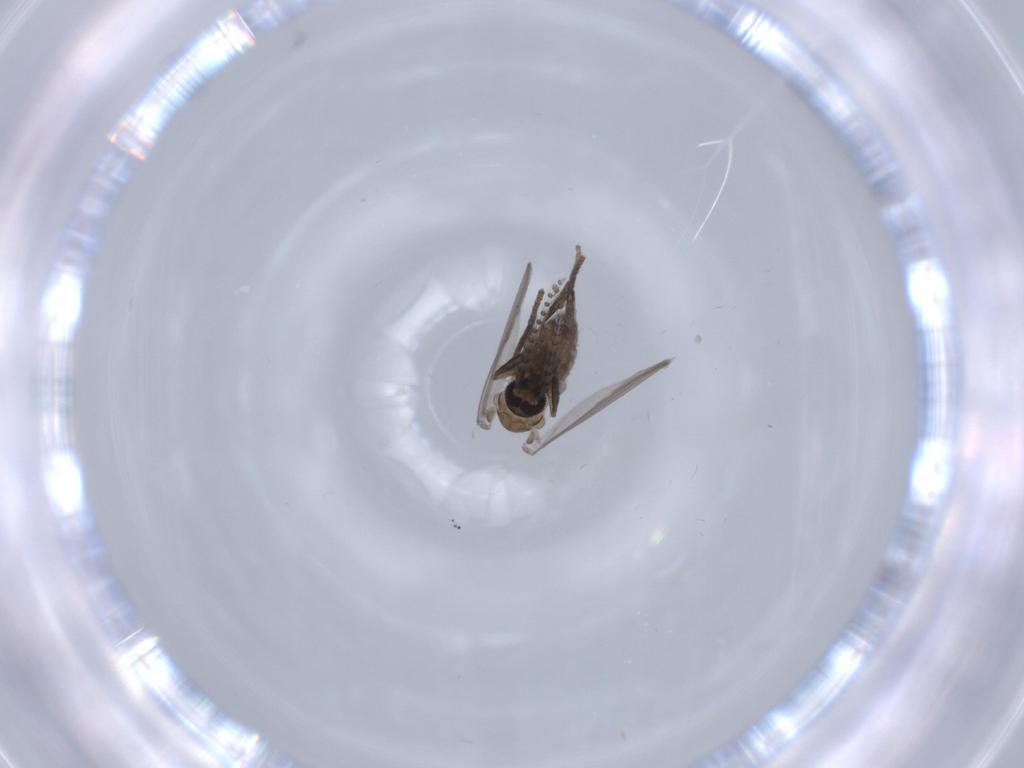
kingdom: Animalia
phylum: Arthropoda
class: Insecta
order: Diptera
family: Psychodidae
